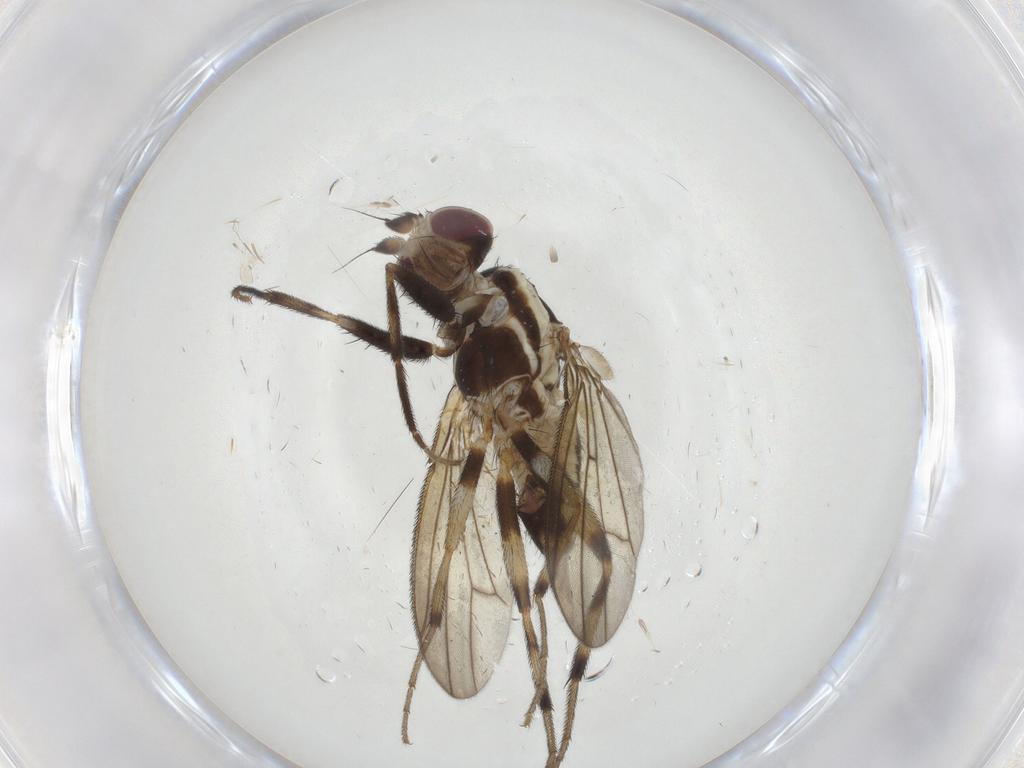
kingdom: Animalia
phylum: Arthropoda
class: Insecta
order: Diptera
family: Pseudopomyzidae
